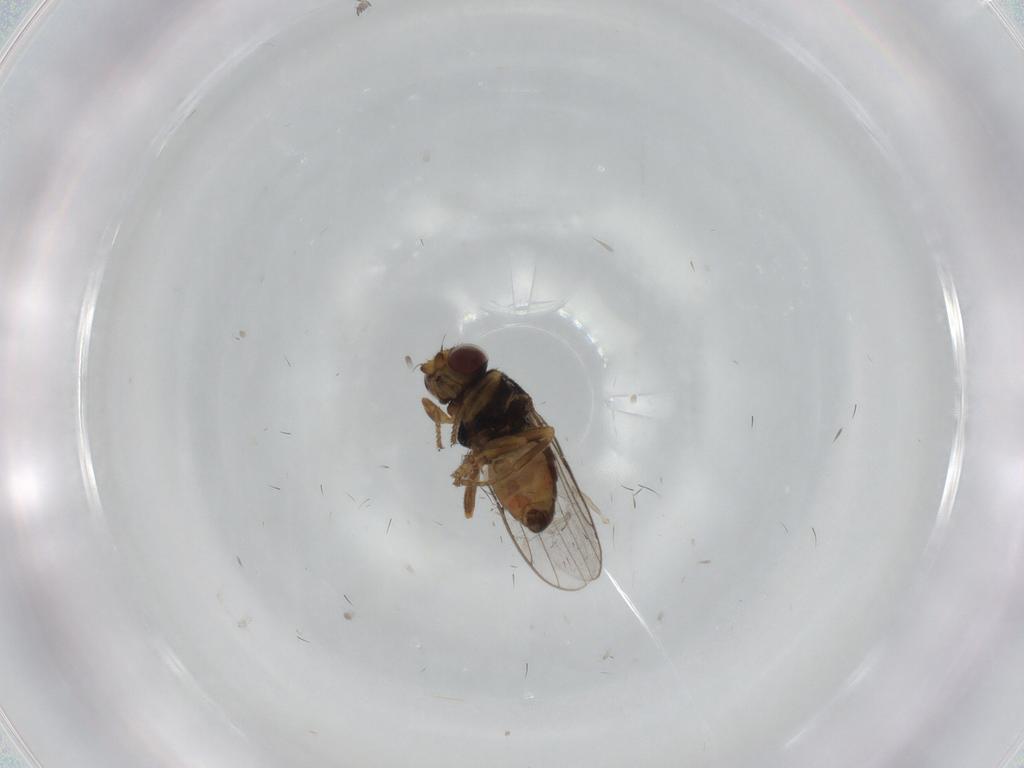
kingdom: Animalia
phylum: Arthropoda
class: Insecta
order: Diptera
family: Chloropidae
